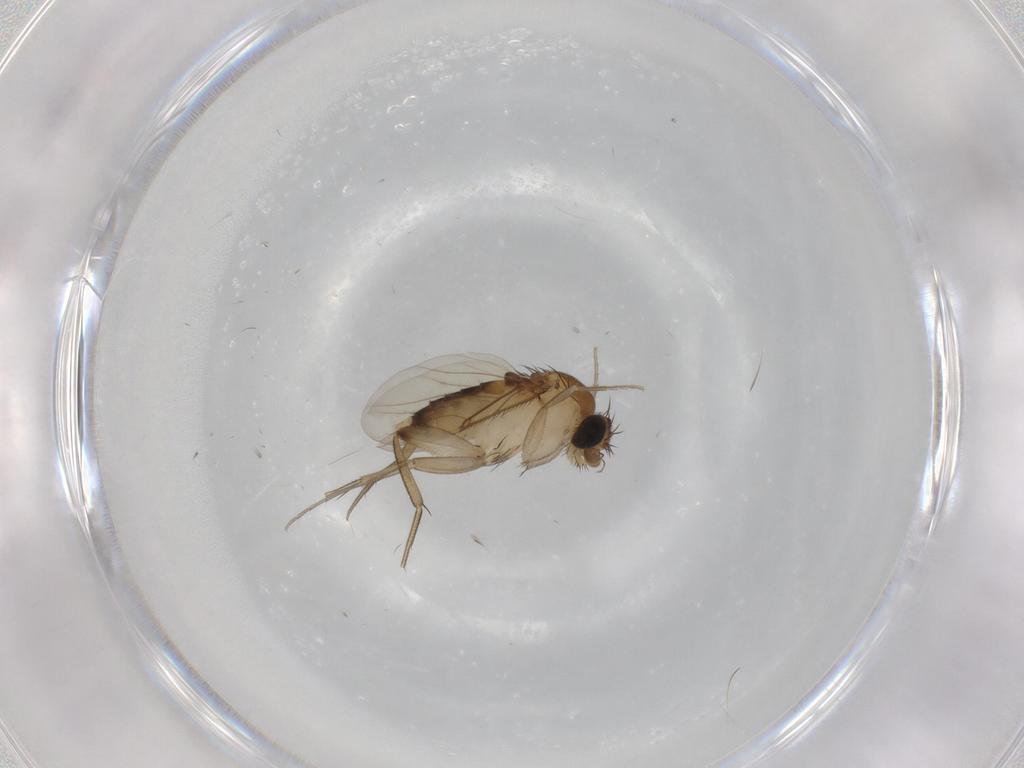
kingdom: Animalia
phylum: Arthropoda
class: Insecta
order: Diptera
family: Phoridae
